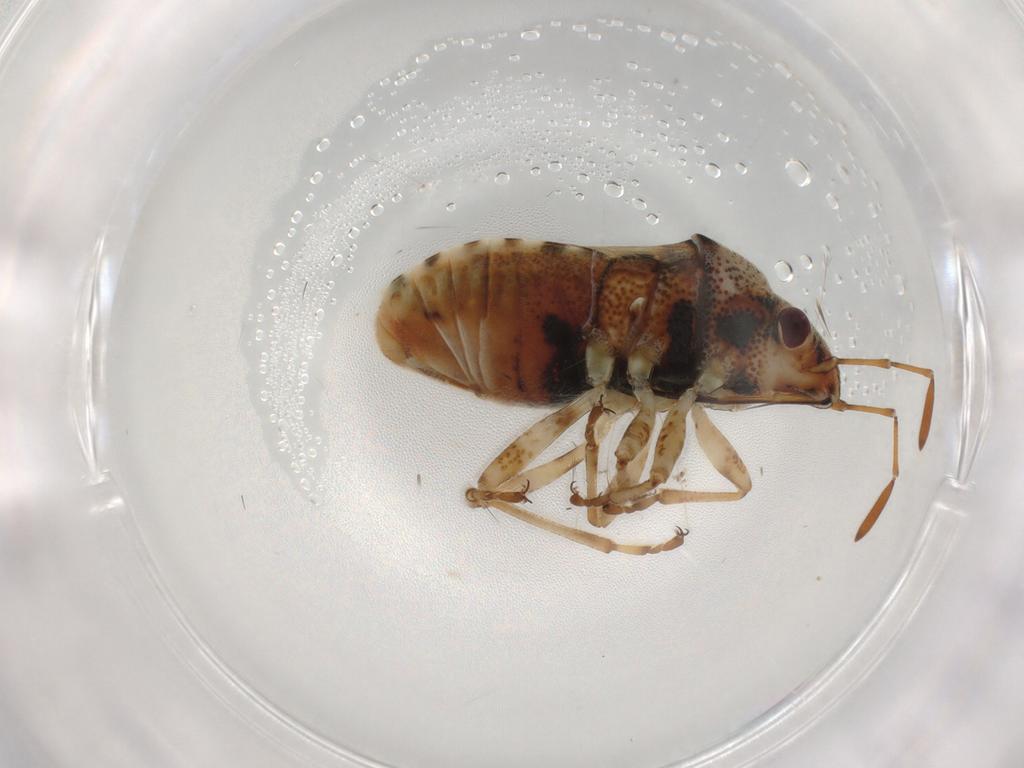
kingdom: Animalia
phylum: Arthropoda
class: Insecta
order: Hemiptera
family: Lygaeidae
